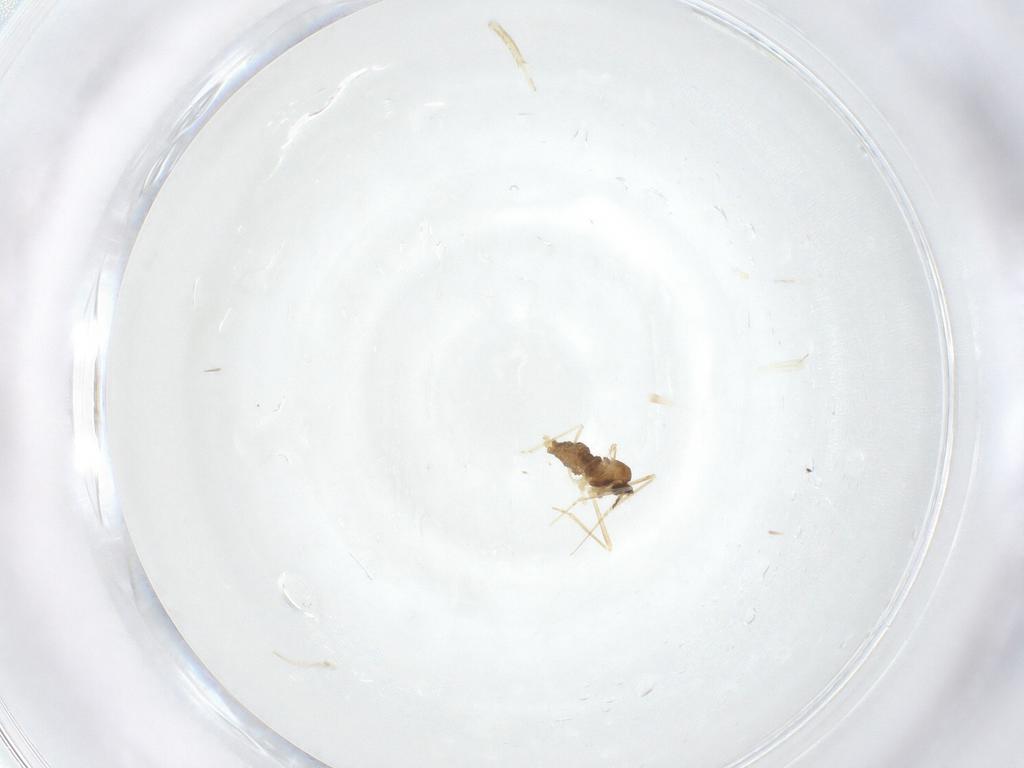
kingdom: Animalia
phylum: Arthropoda
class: Insecta
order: Diptera
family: Cecidomyiidae
